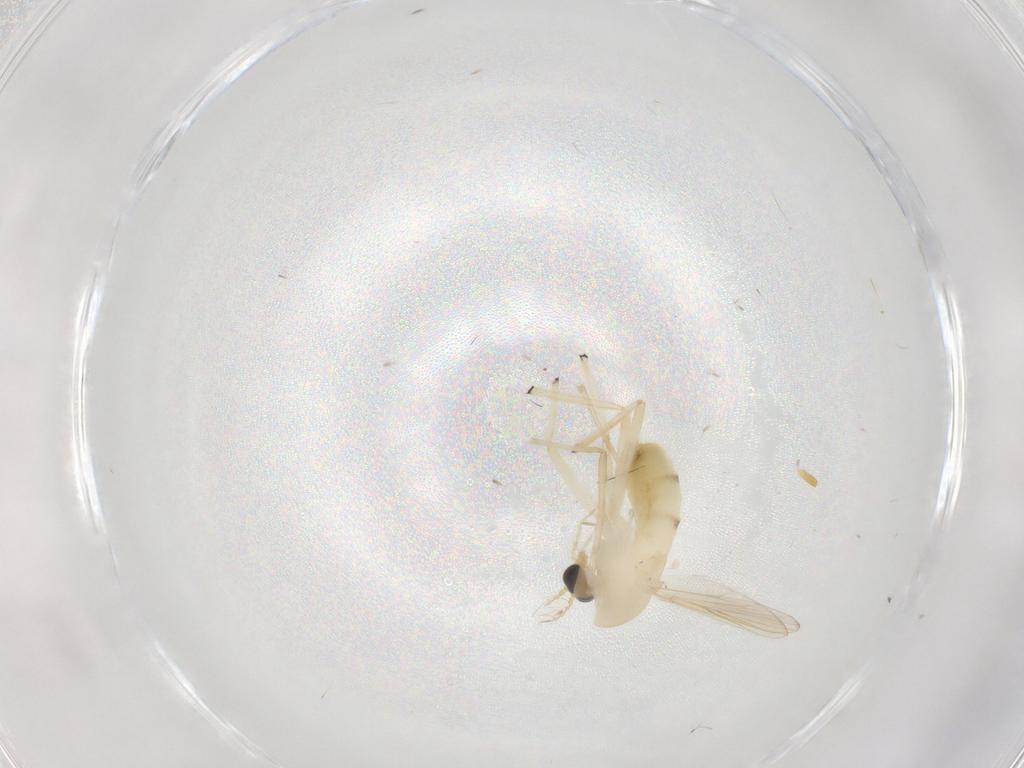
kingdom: Animalia
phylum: Arthropoda
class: Insecta
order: Diptera
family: Chironomidae
